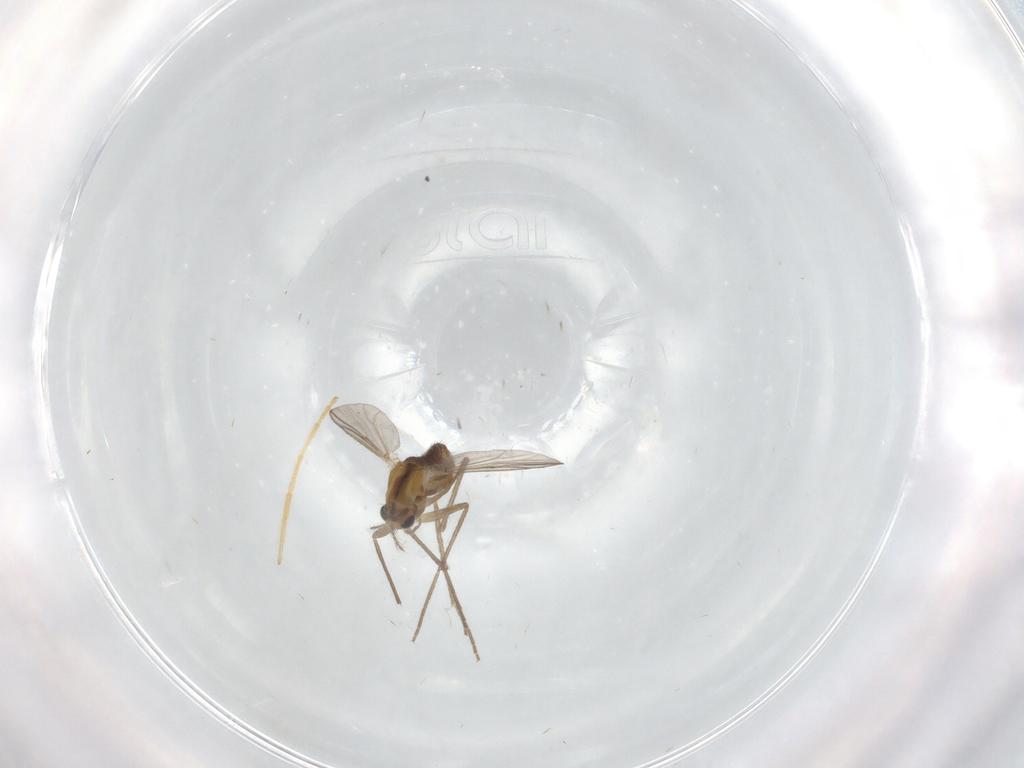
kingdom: Animalia
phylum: Arthropoda
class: Insecta
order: Diptera
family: Chironomidae
